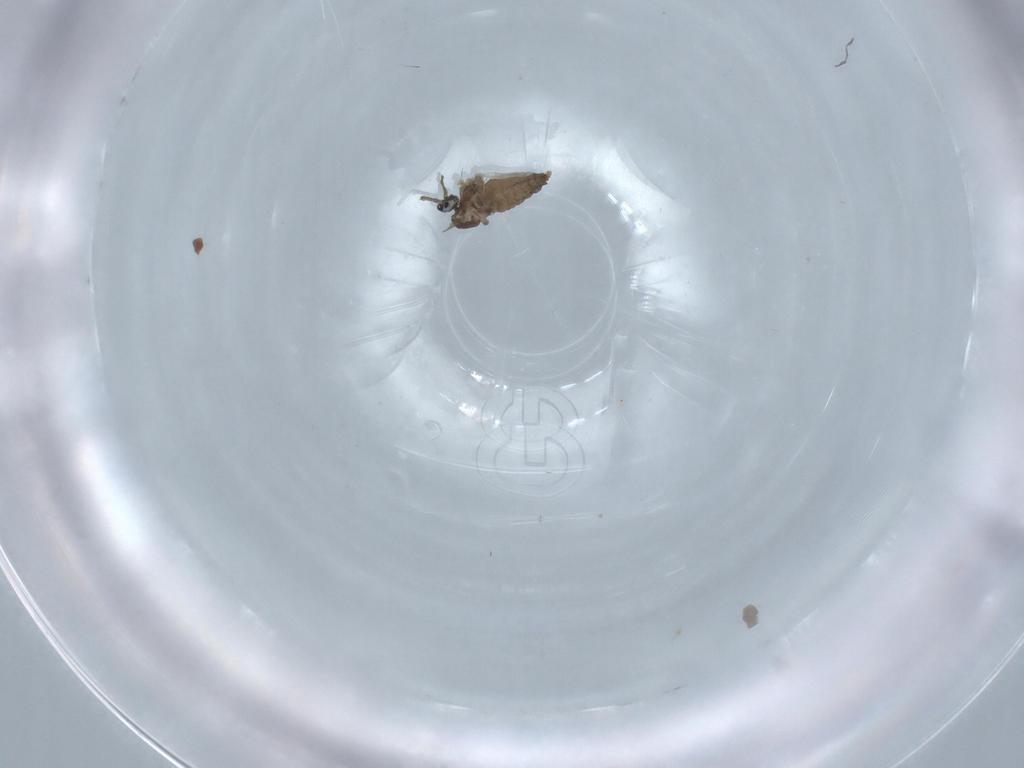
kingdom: Animalia
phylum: Arthropoda
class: Insecta
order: Diptera
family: Cecidomyiidae
